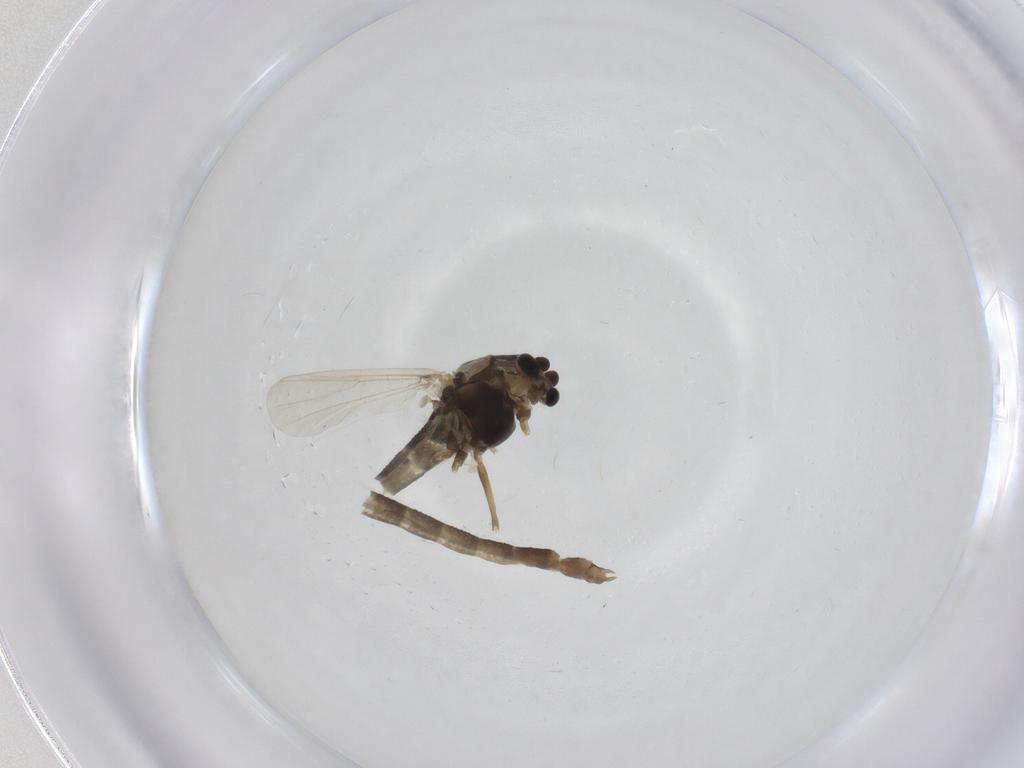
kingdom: Animalia
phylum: Arthropoda
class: Insecta
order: Diptera
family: Chironomidae
